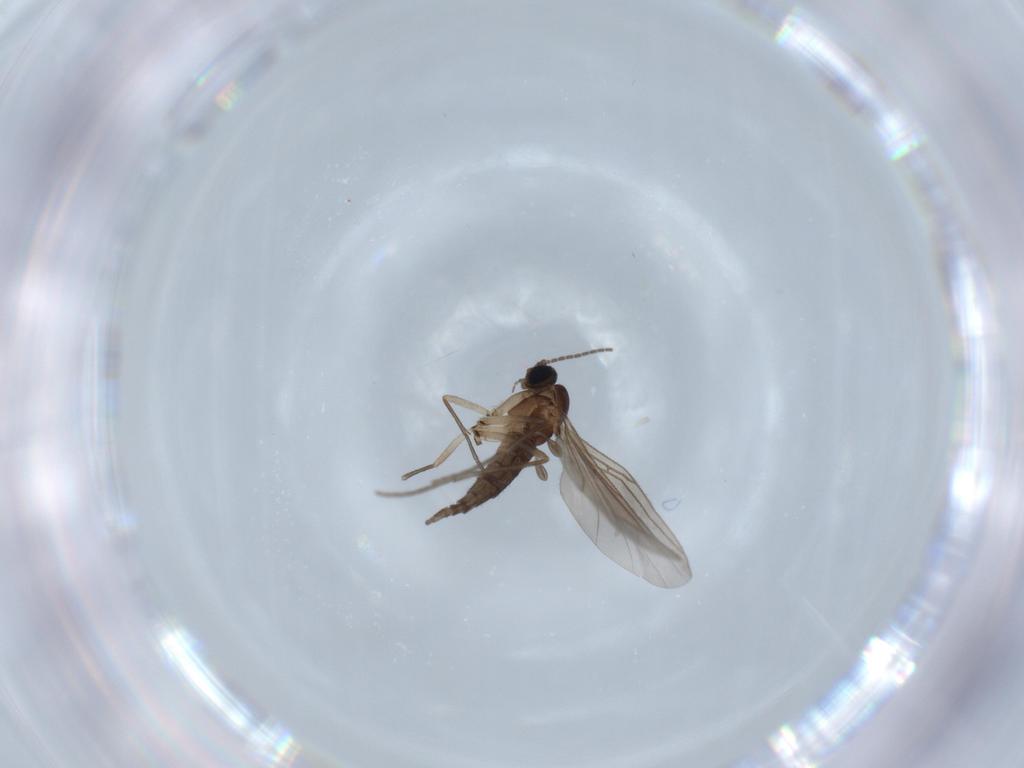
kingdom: Animalia
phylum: Arthropoda
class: Insecta
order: Diptera
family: Sciaridae
